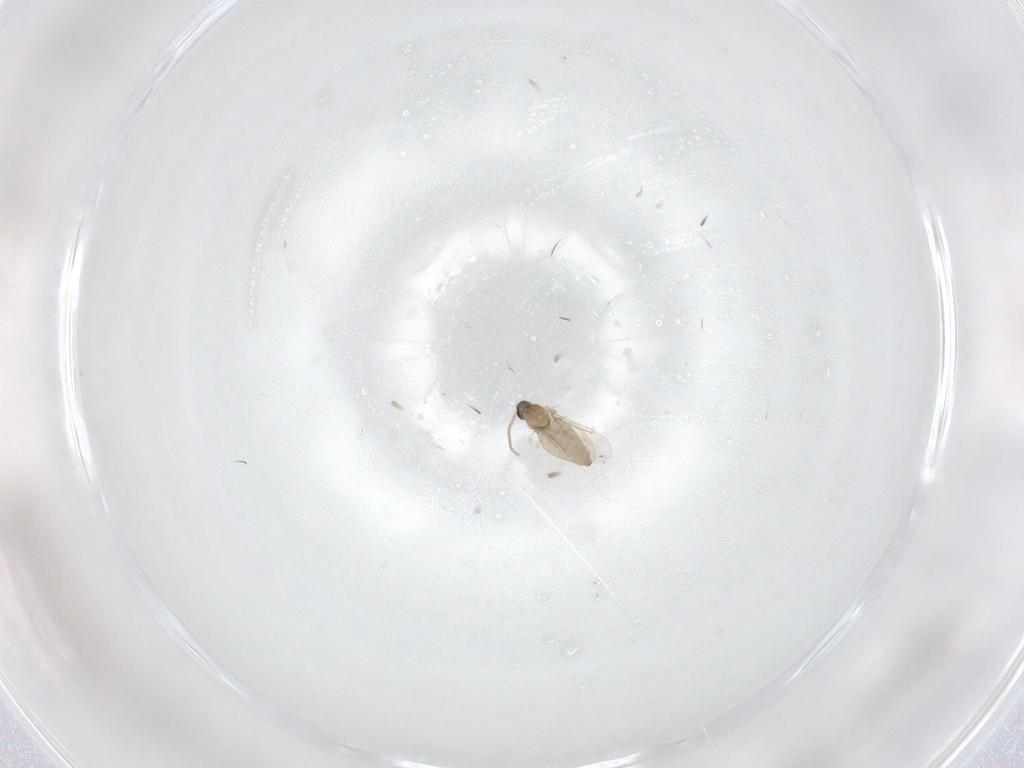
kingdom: Animalia
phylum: Arthropoda
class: Insecta
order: Diptera
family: Cecidomyiidae
